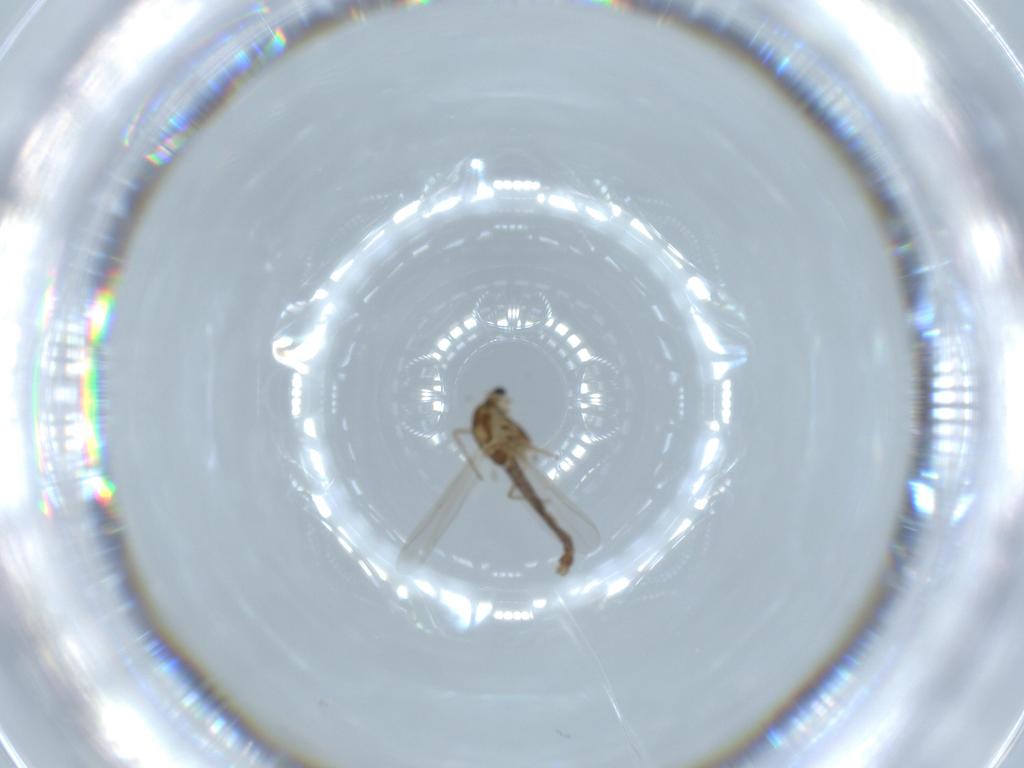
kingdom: Animalia
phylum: Arthropoda
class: Insecta
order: Diptera
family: Chironomidae
